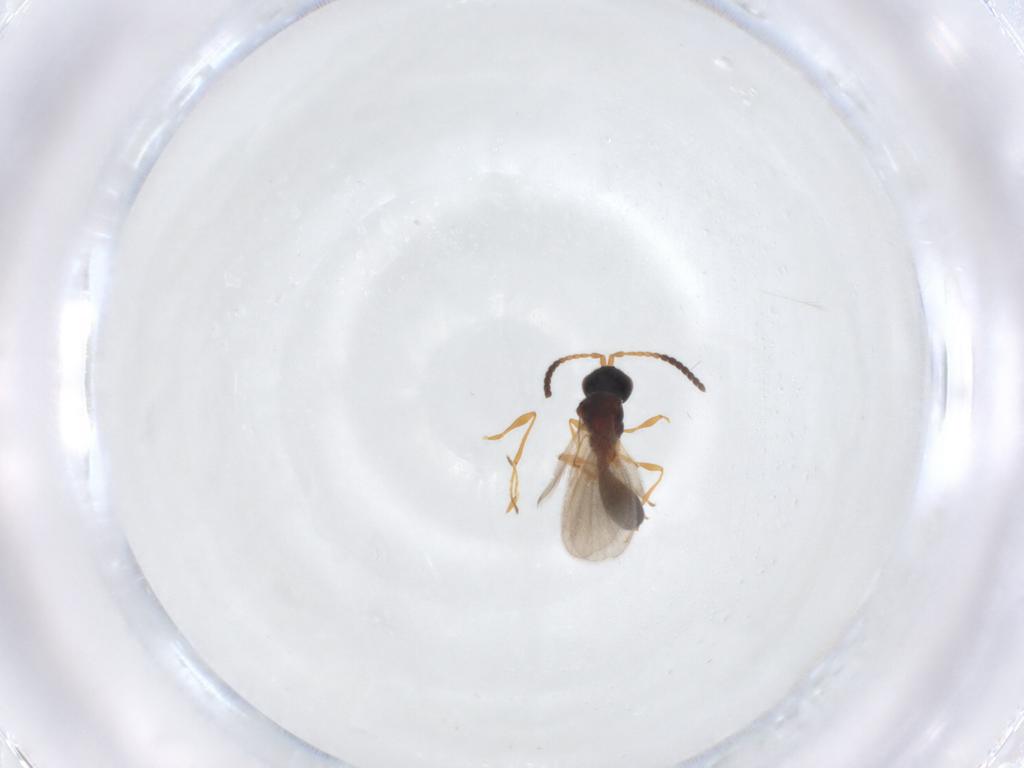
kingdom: Animalia
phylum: Arthropoda
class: Insecta
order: Hymenoptera
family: Diapriidae
